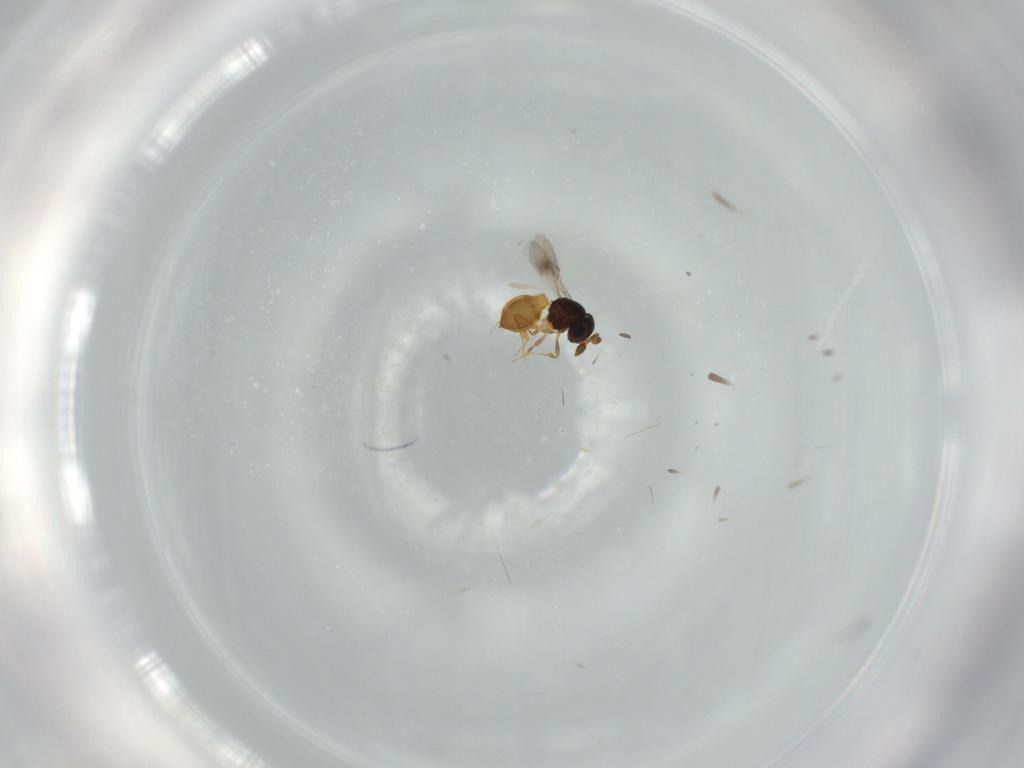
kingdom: Animalia
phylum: Arthropoda
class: Insecta
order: Hymenoptera
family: Scelionidae
